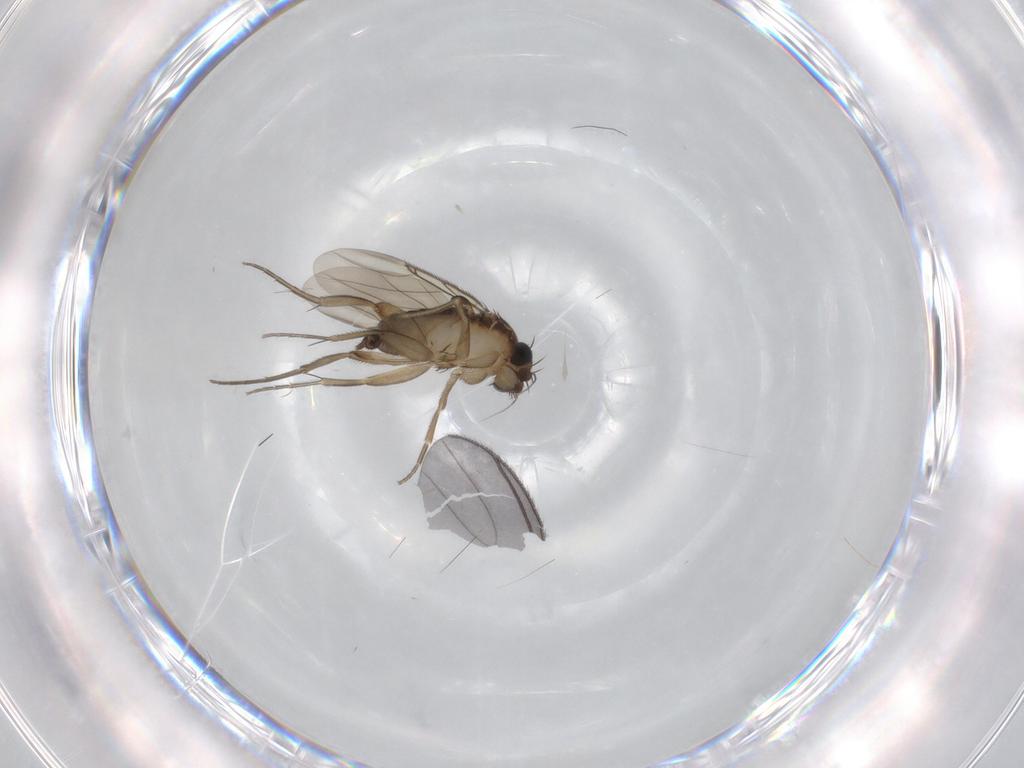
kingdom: Animalia
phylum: Arthropoda
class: Insecta
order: Diptera
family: Phoridae
